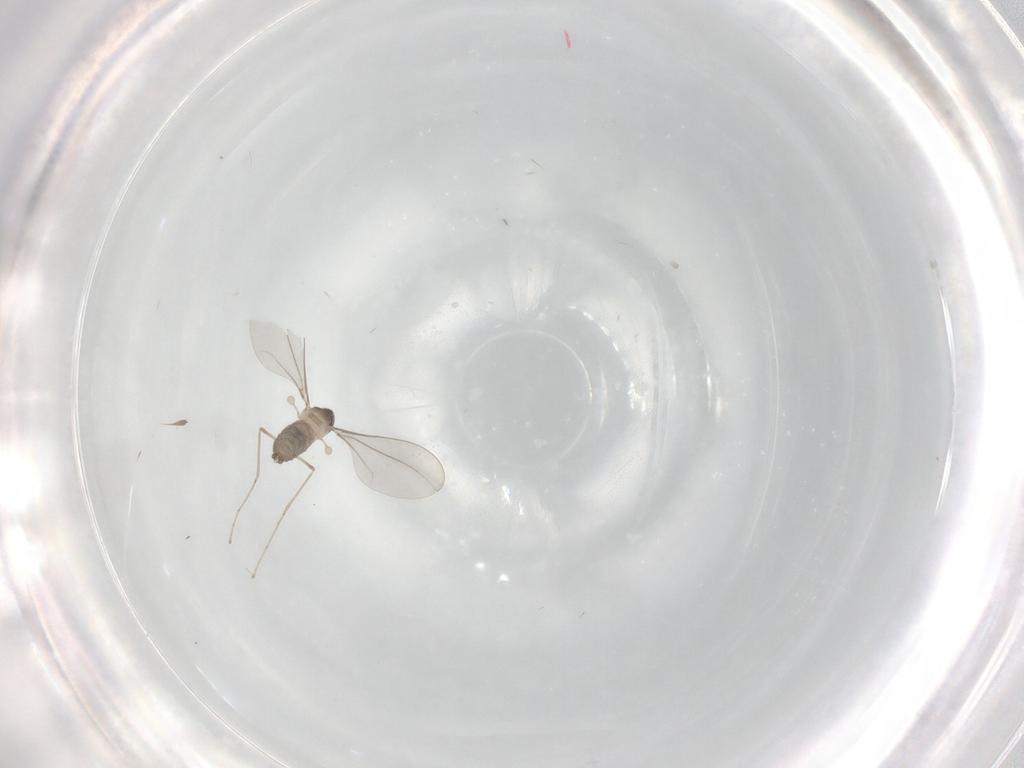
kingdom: Animalia
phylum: Arthropoda
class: Insecta
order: Diptera
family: Cecidomyiidae
